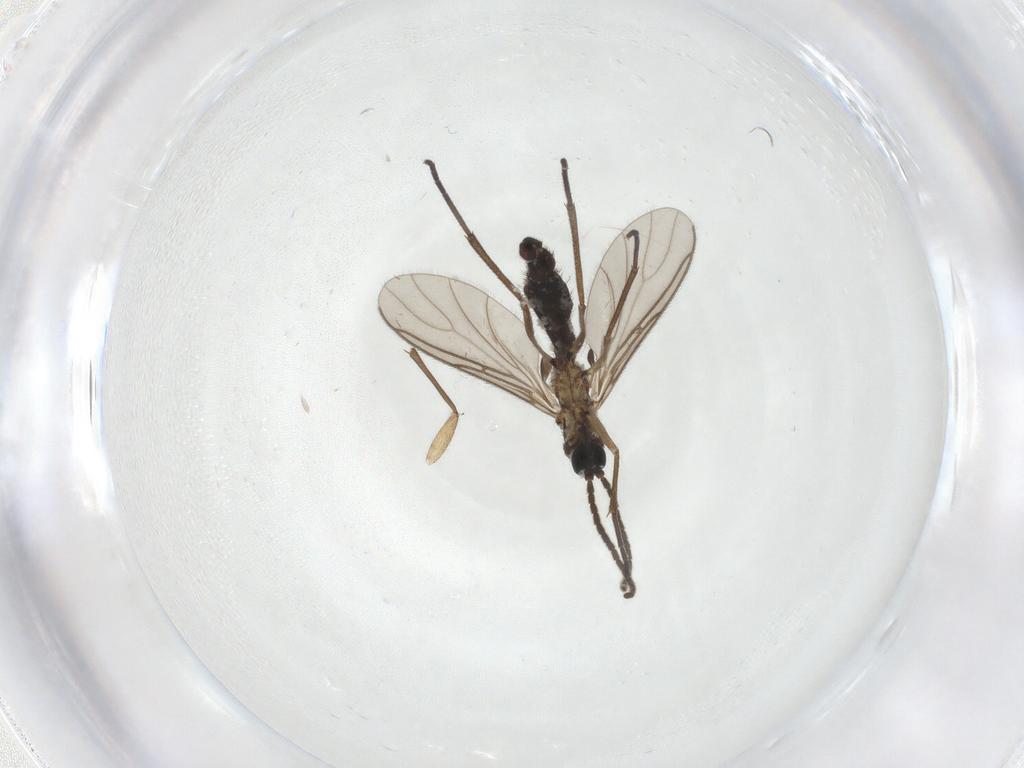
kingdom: Animalia
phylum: Arthropoda
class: Insecta
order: Diptera
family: Sciaridae
